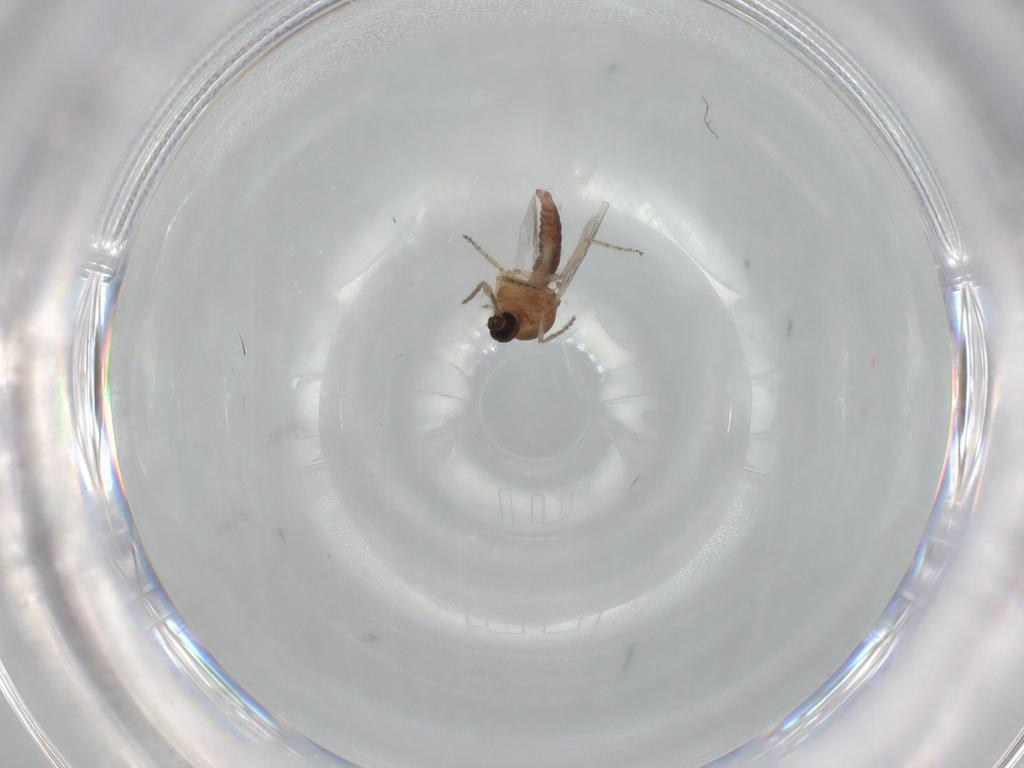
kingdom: Animalia
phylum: Arthropoda
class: Insecta
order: Diptera
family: Ceratopogonidae
